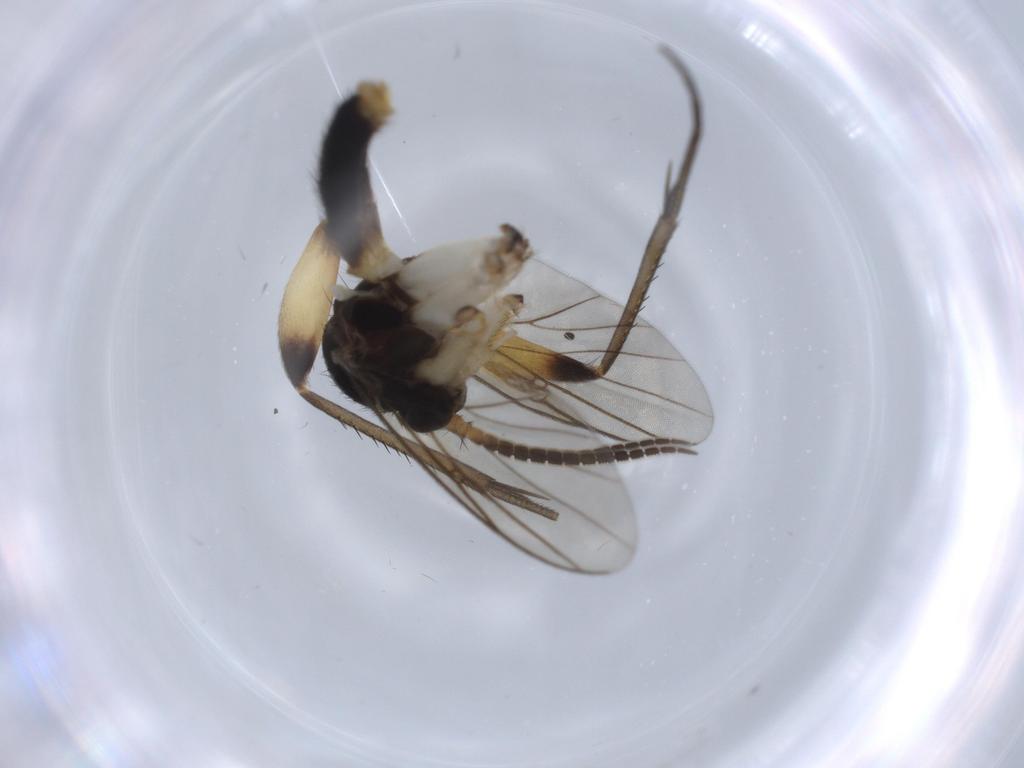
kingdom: Animalia
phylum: Arthropoda
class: Insecta
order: Diptera
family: Mycetophilidae
